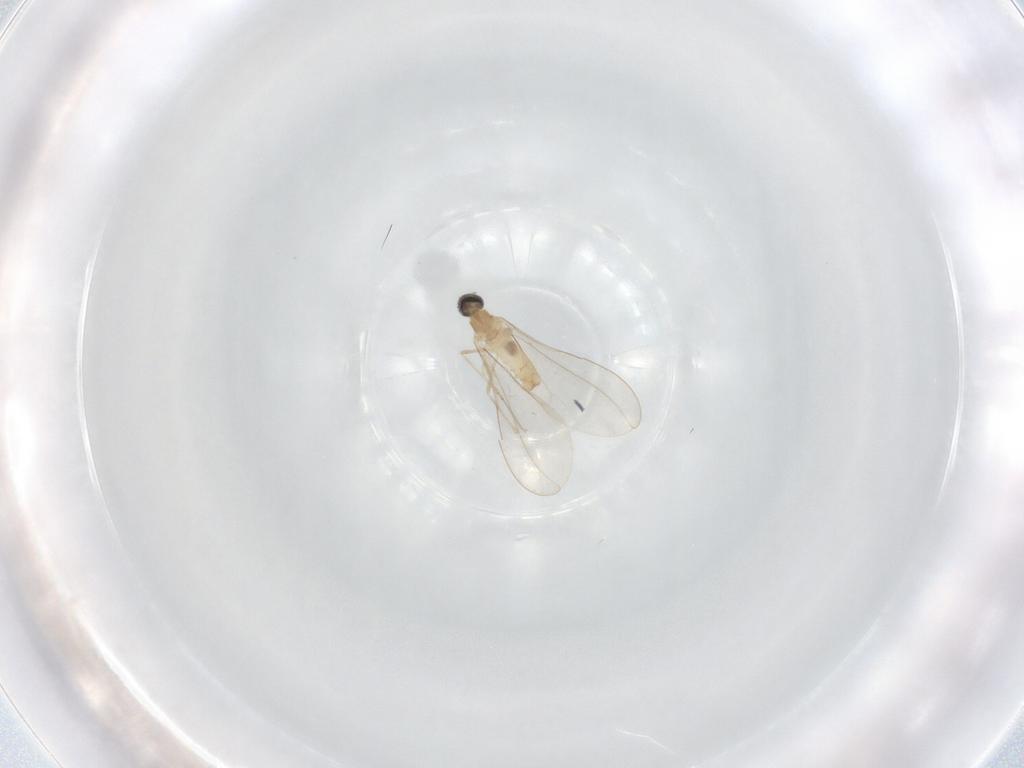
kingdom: Animalia
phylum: Arthropoda
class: Insecta
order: Diptera
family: Cecidomyiidae
